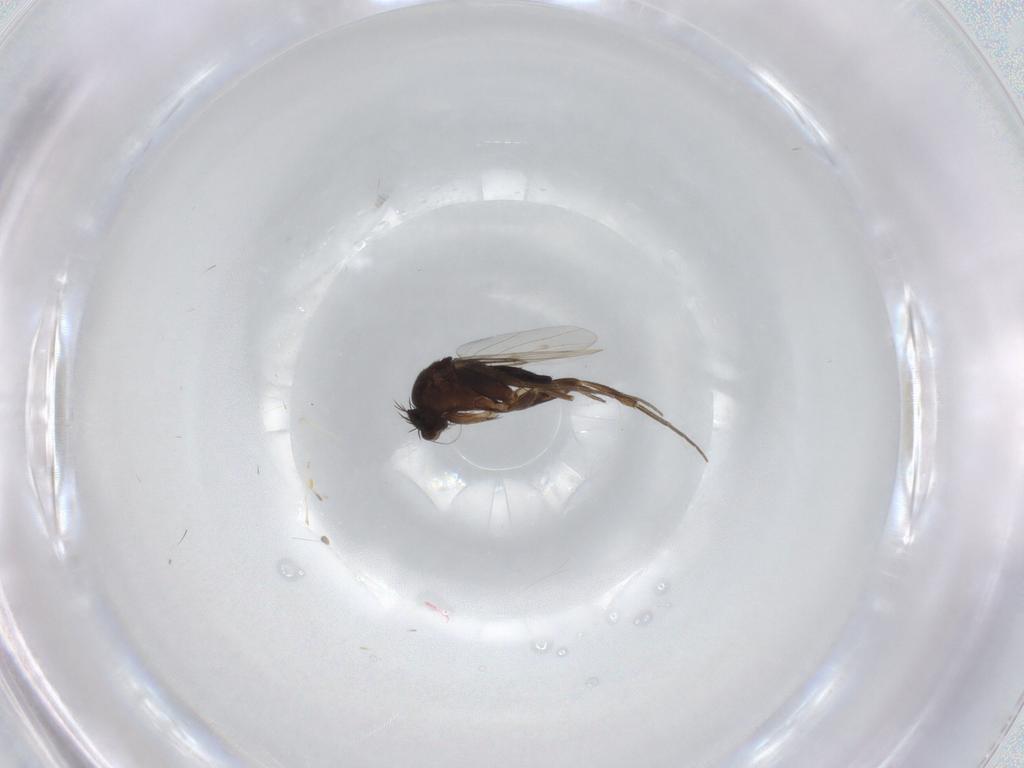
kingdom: Animalia
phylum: Arthropoda
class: Insecta
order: Diptera
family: Phoridae
